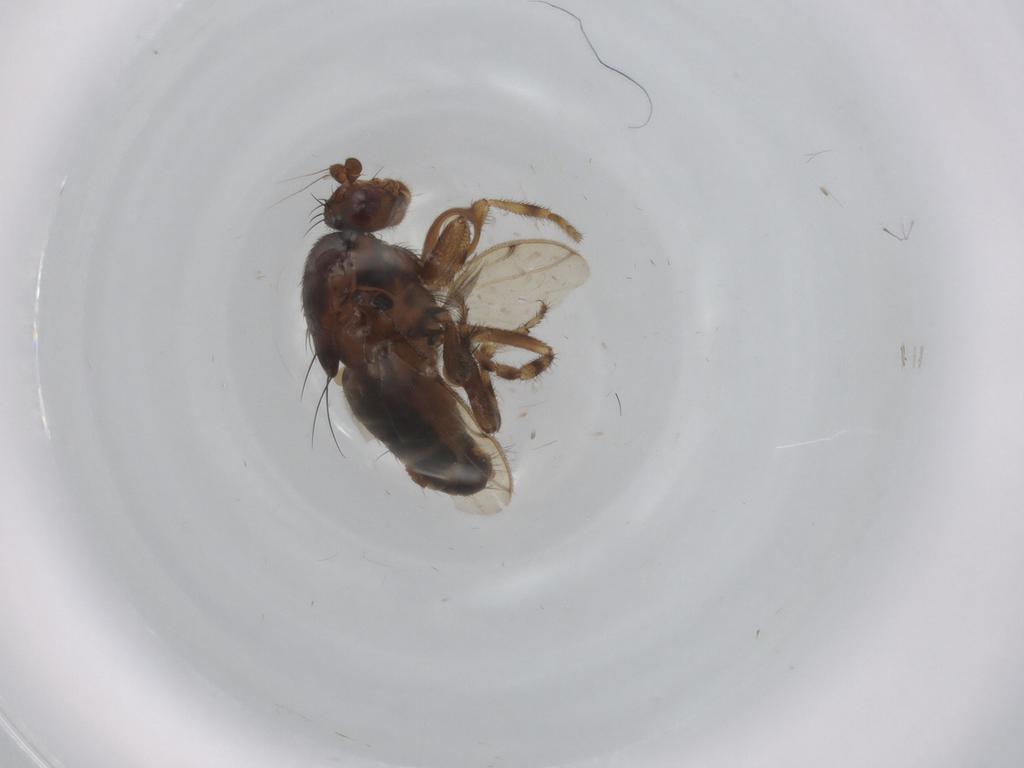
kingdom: Animalia
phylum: Arthropoda
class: Insecta
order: Diptera
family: Sphaeroceridae
